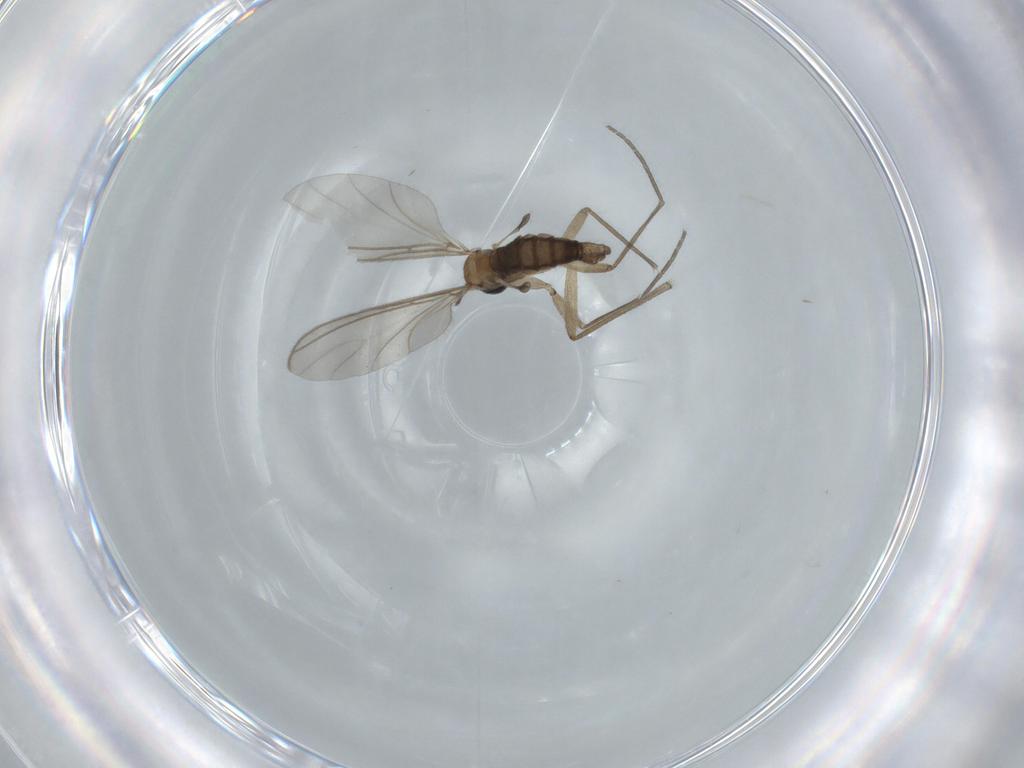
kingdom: Animalia
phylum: Arthropoda
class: Insecta
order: Diptera
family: Sciaridae
